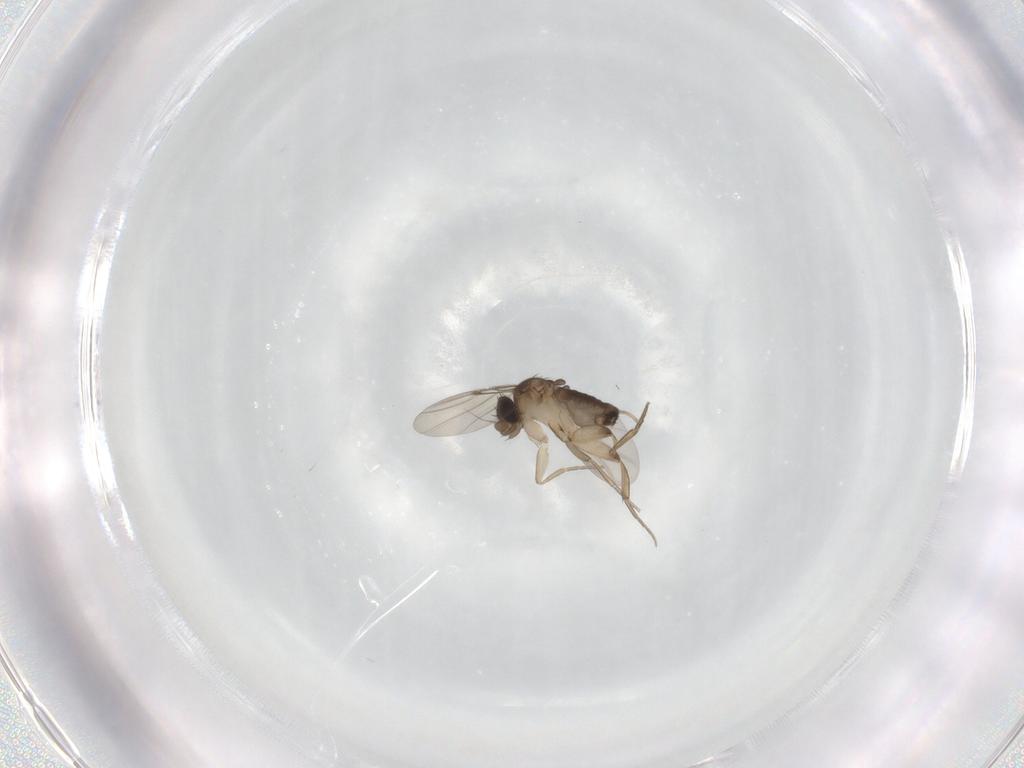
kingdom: Animalia
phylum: Arthropoda
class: Insecta
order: Diptera
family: Phoridae
